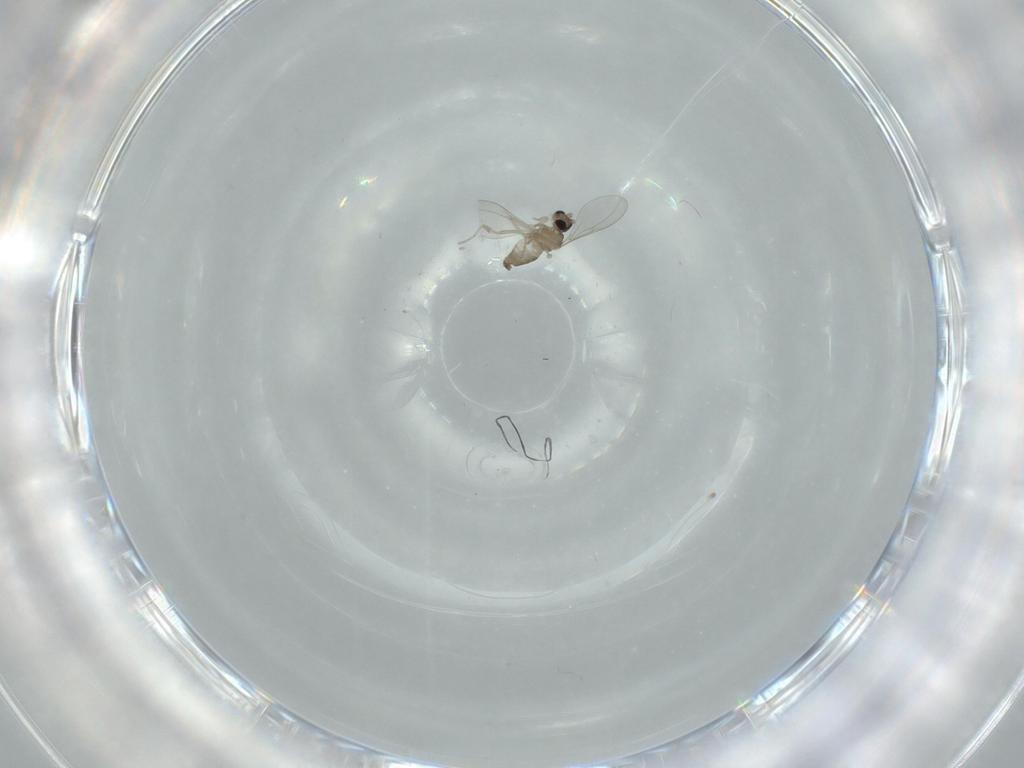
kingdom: Animalia
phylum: Arthropoda
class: Insecta
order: Diptera
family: Cecidomyiidae
